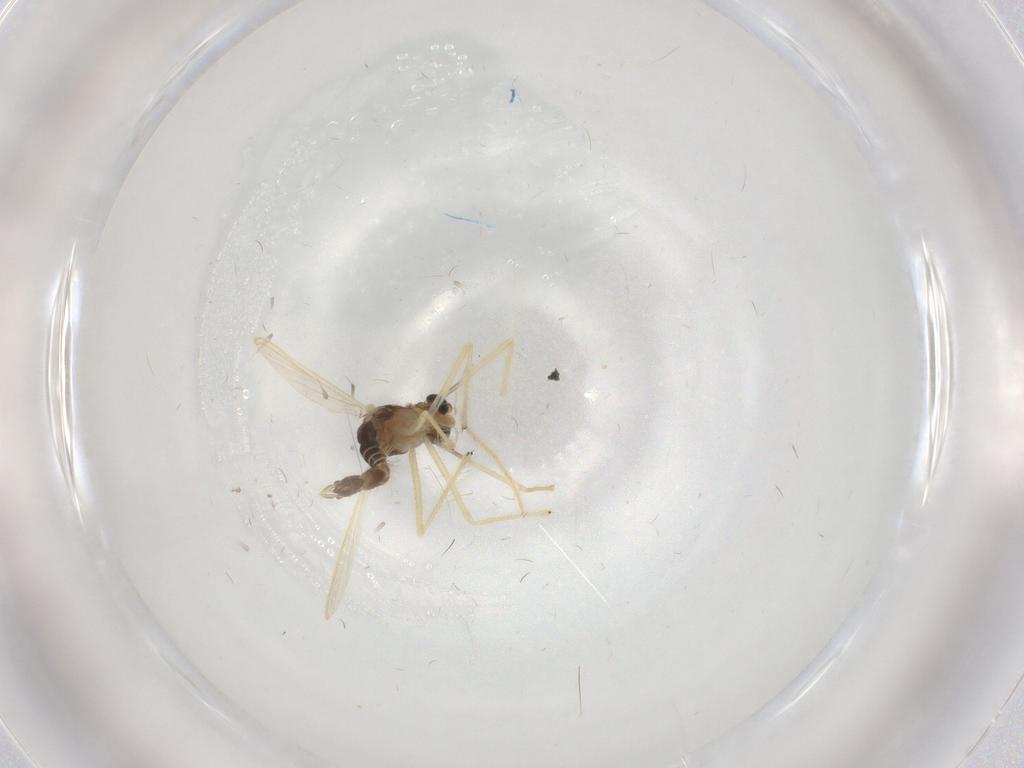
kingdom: Animalia
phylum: Arthropoda
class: Insecta
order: Diptera
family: Chironomidae
